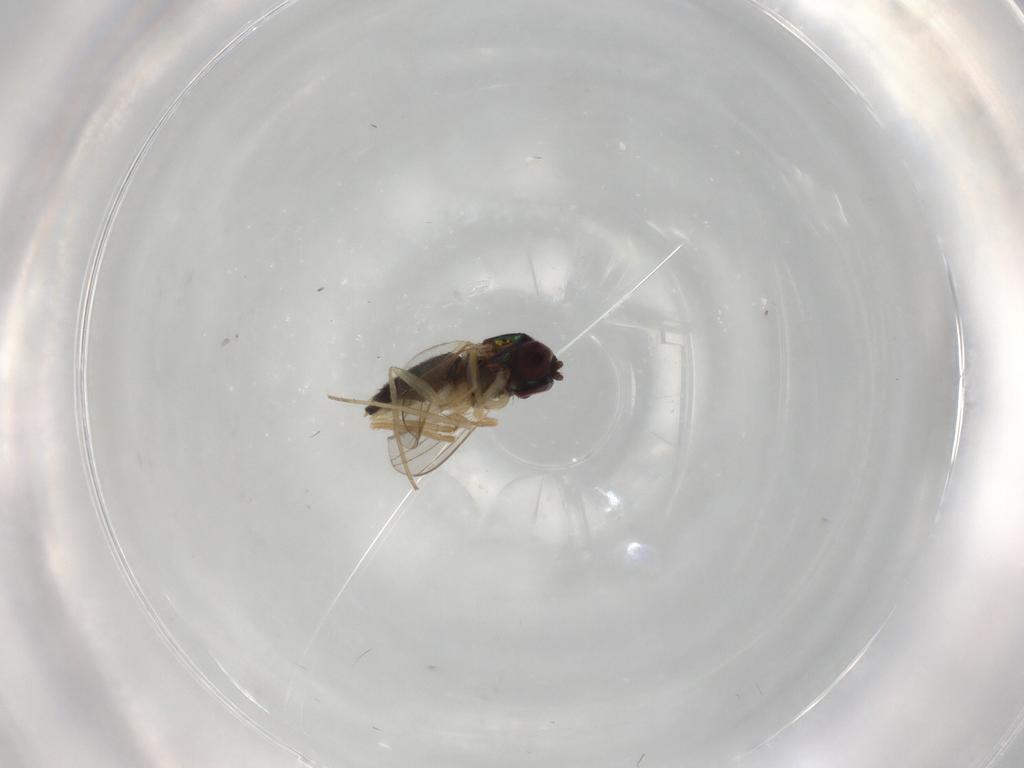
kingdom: Animalia
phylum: Arthropoda
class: Insecta
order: Diptera
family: Dolichopodidae
